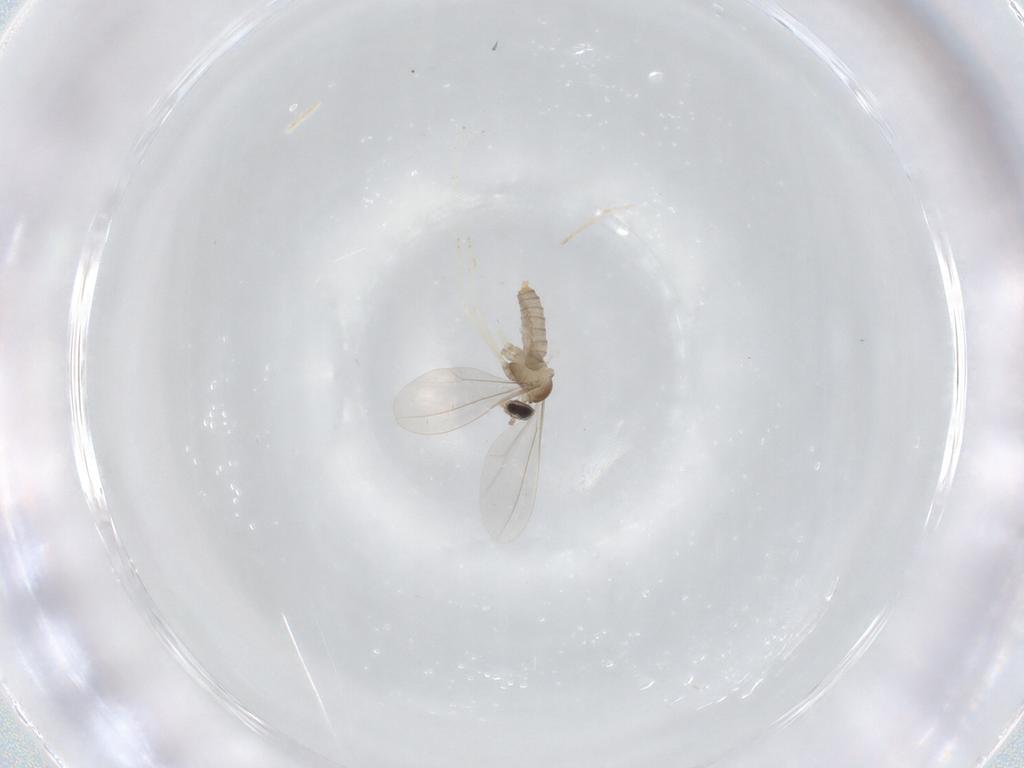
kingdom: Animalia
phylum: Arthropoda
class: Insecta
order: Diptera
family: Cecidomyiidae
